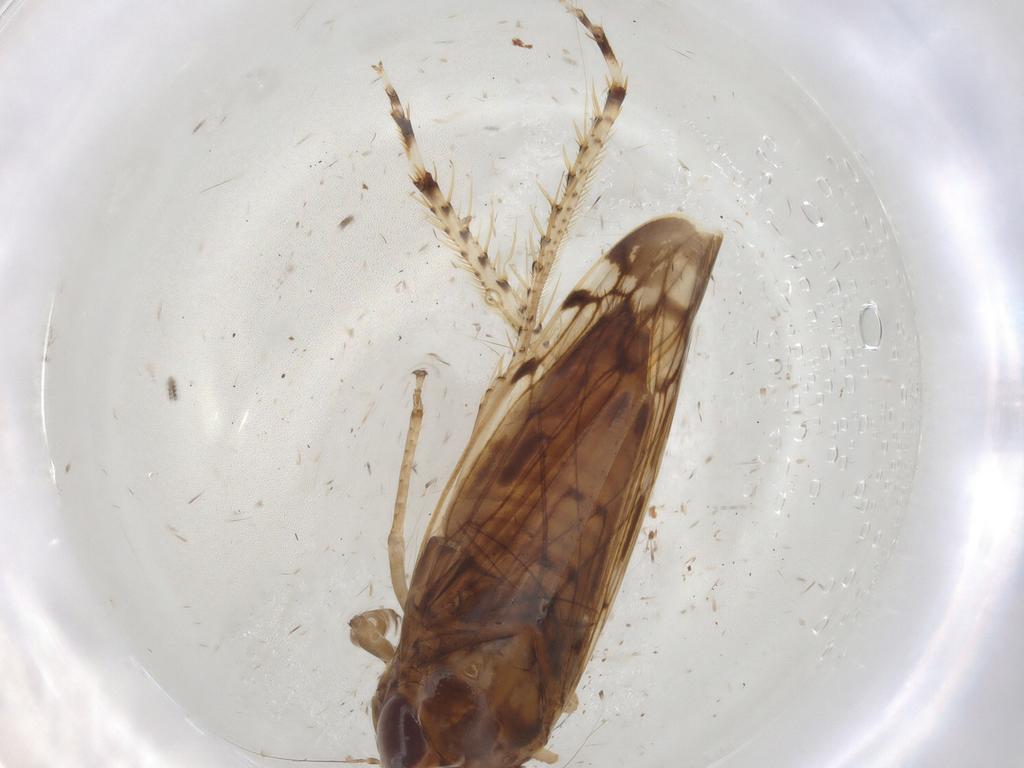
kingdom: Animalia
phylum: Arthropoda
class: Insecta
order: Hemiptera
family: Cicadellidae
